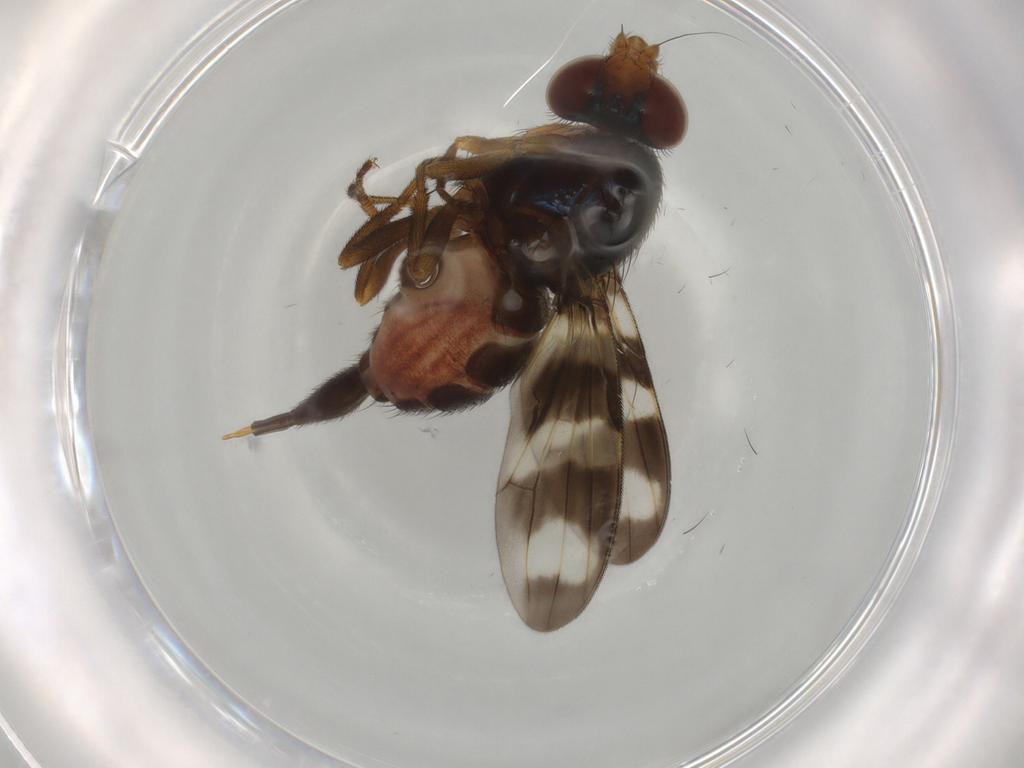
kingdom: Animalia
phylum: Arthropoda
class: Insecta
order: Diptera
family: Ulidiidae
